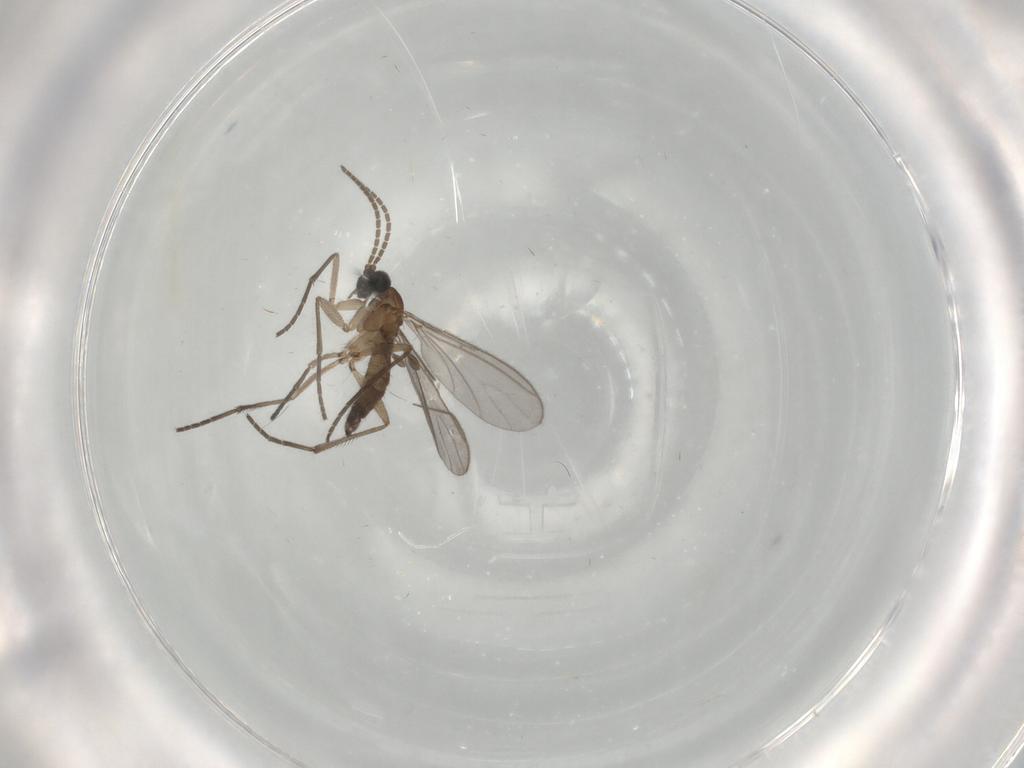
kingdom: Animalia
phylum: Arthropoda
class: Insecta
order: Diptera
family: Sciaridae
